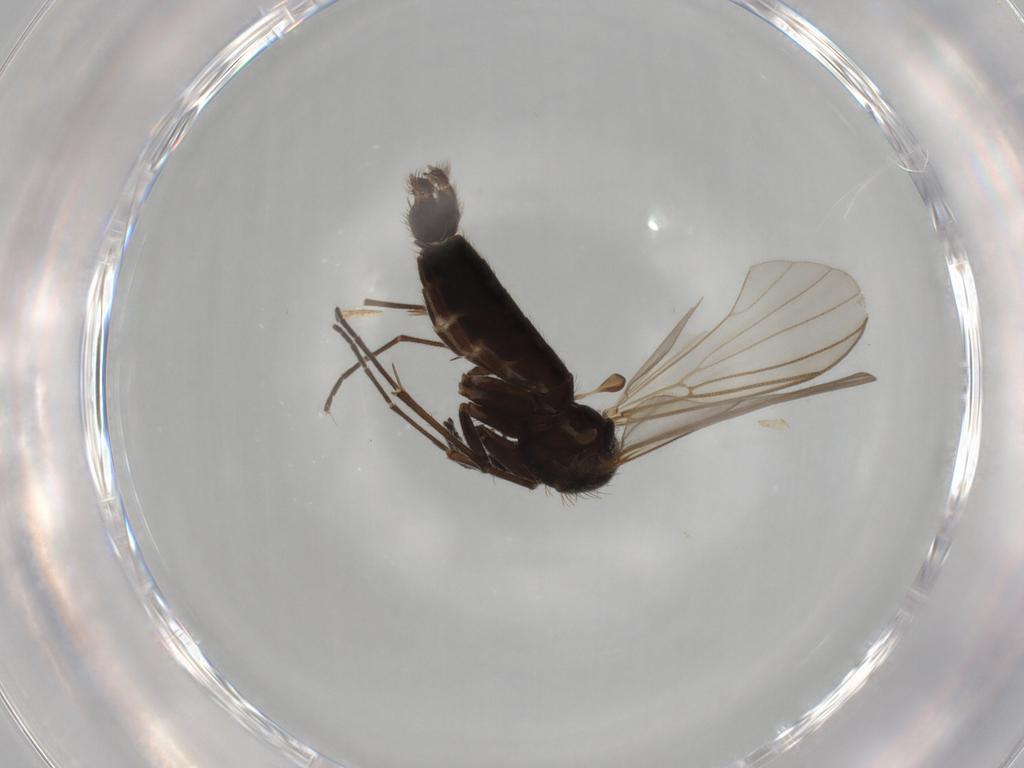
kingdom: Animalia
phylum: Arthropoda
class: Insecta
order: Diptera
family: Mycetophilidae
